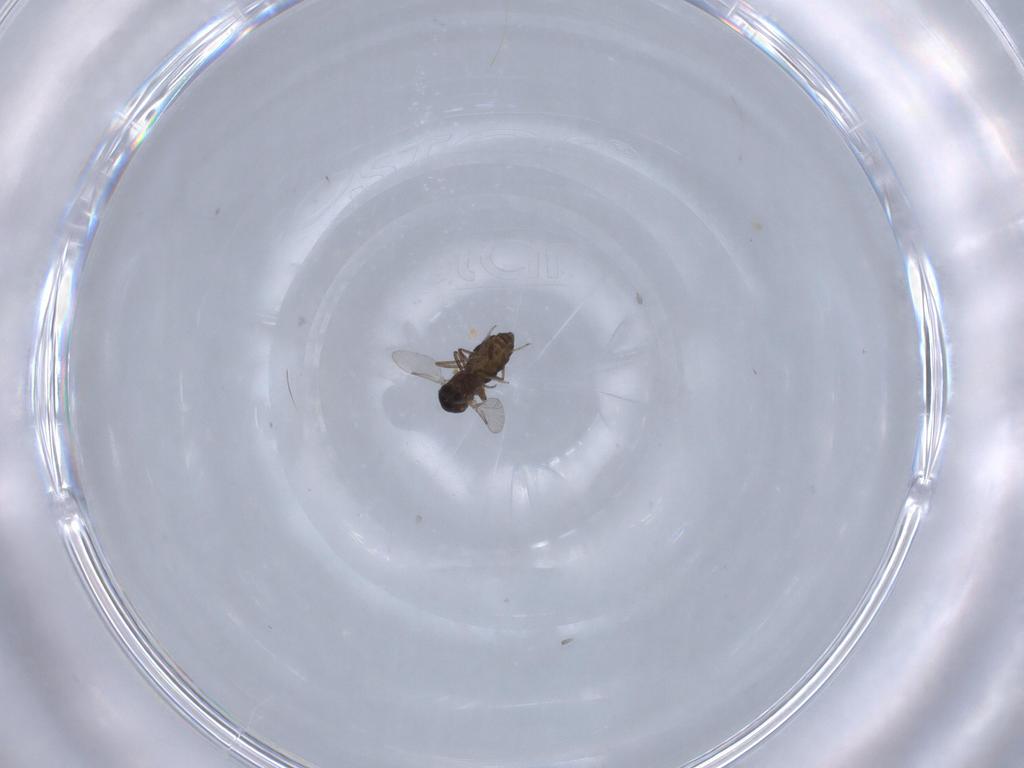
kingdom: Animalia
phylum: Arthropoda
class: Insecta
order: Diptera
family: Ceratopogonidae
